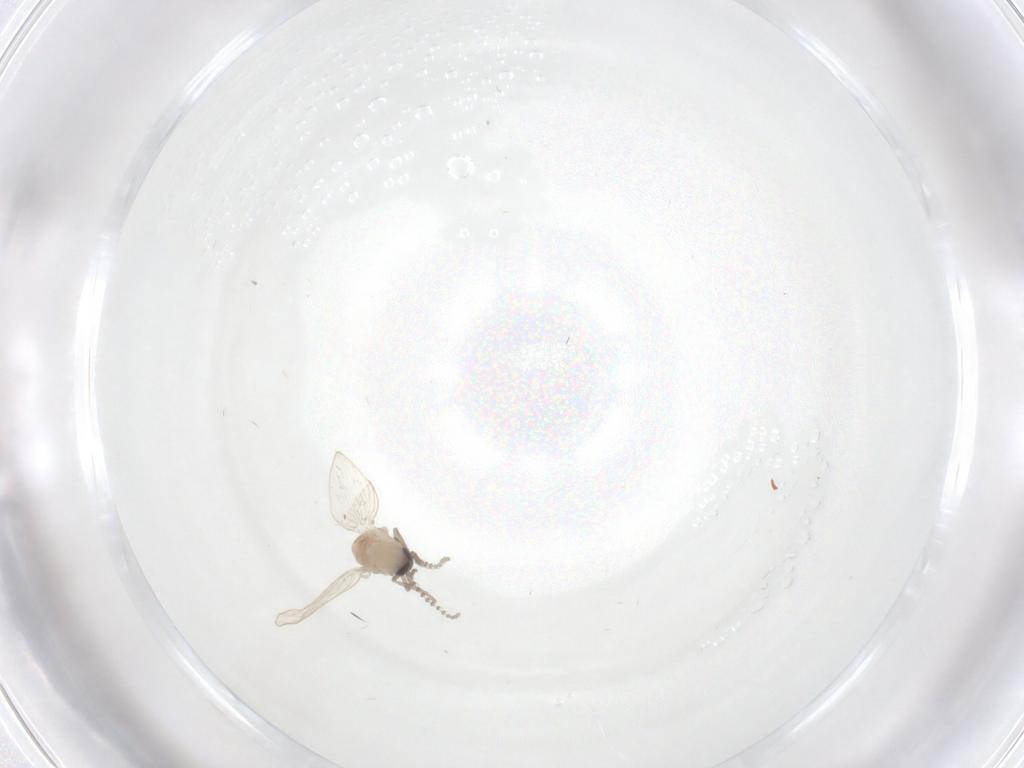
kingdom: Animalia
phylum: Arthropoda
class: Insecta
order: Diptera
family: Psychodidae
